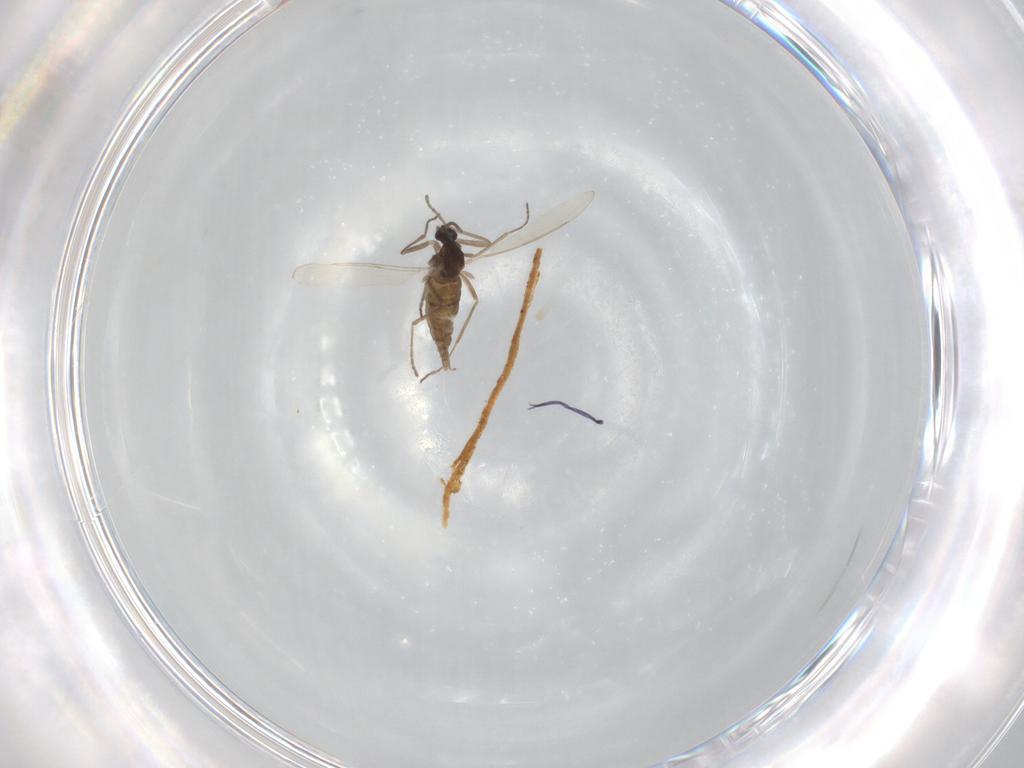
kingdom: Animalia
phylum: Arthropoda
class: Insecta
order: Diptera
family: Cecidomyiidae
